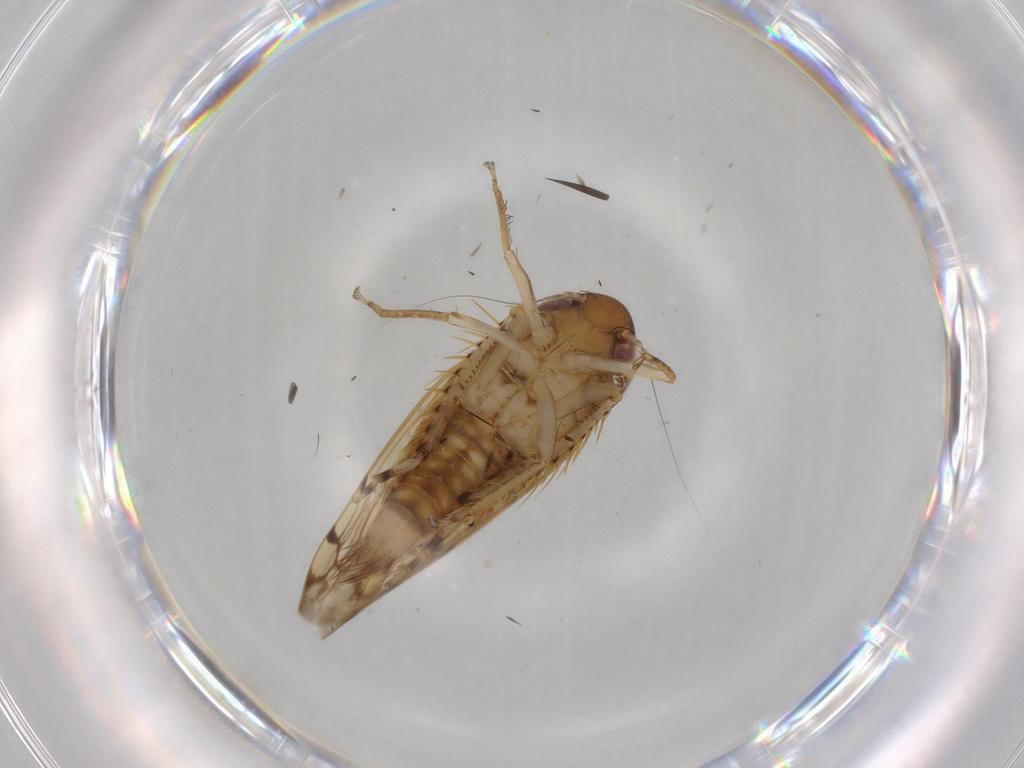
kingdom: Animalia
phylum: Arthropoda
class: Insecta
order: Hemiptera
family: Cicadellidae
